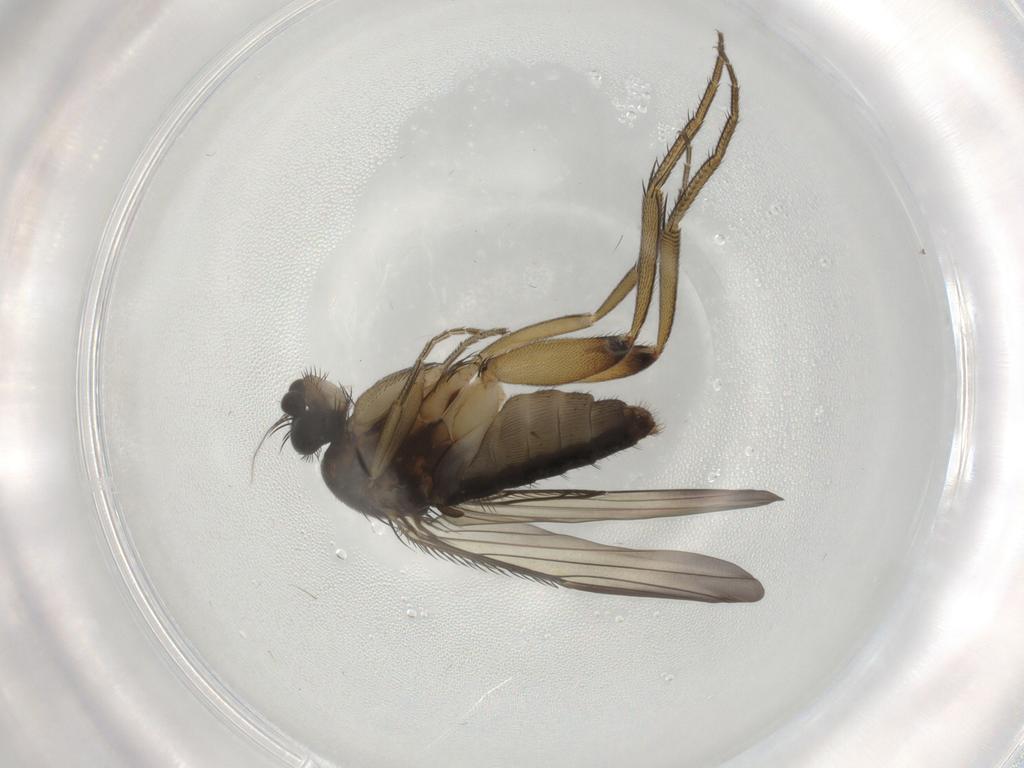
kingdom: Animalia
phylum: Arthropoda
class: Insecta
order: Diptera
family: Phoridae
